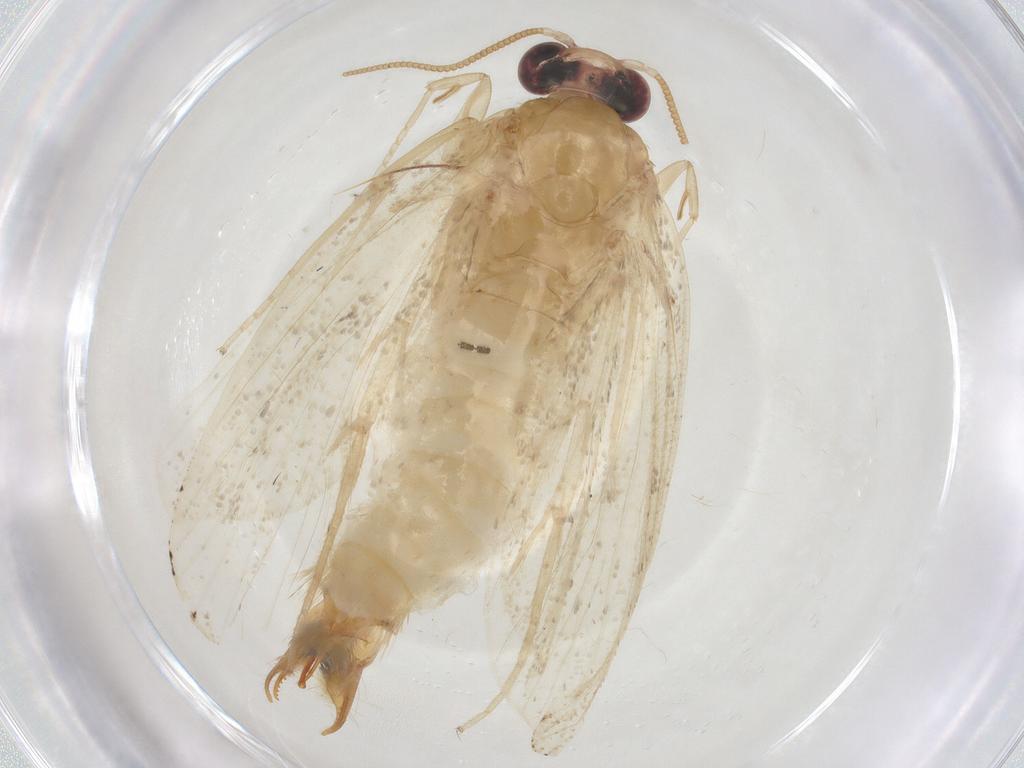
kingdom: Animalia
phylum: Arthropoda
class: Insecta
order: Lepidoptera
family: Psychidae
